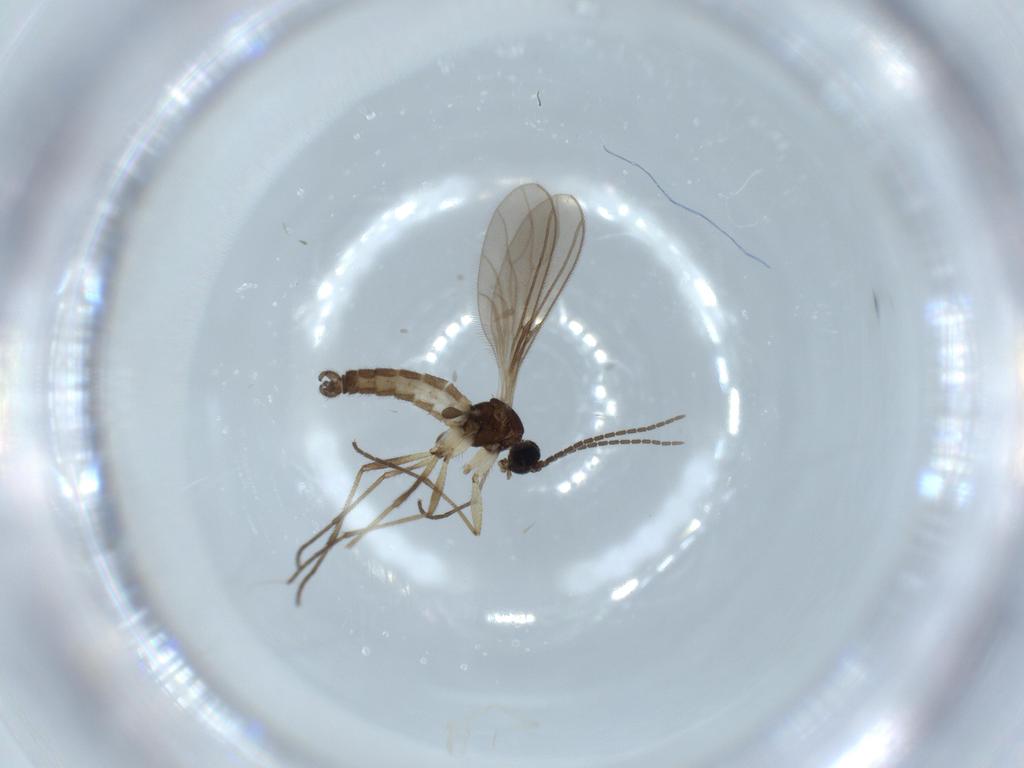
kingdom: Animalia
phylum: Arthropoda
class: Insecta
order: Diptera
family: Sciaridae
